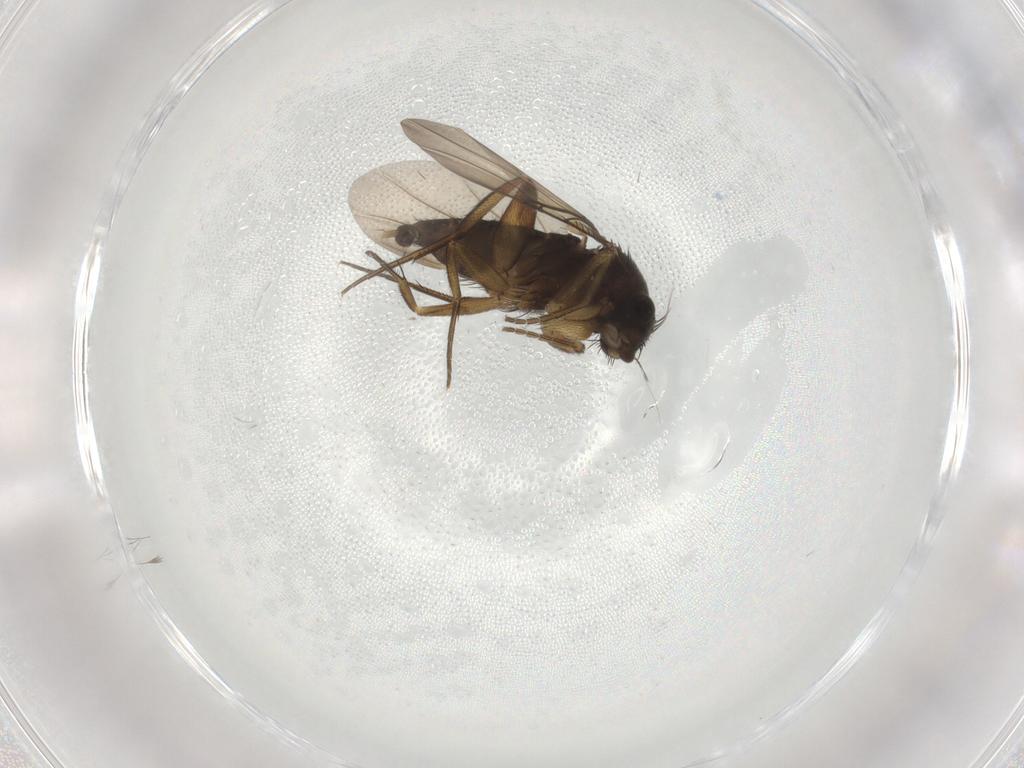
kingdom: Animalia
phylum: Arthropoda
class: Insecta
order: Diptera
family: Phoridae
